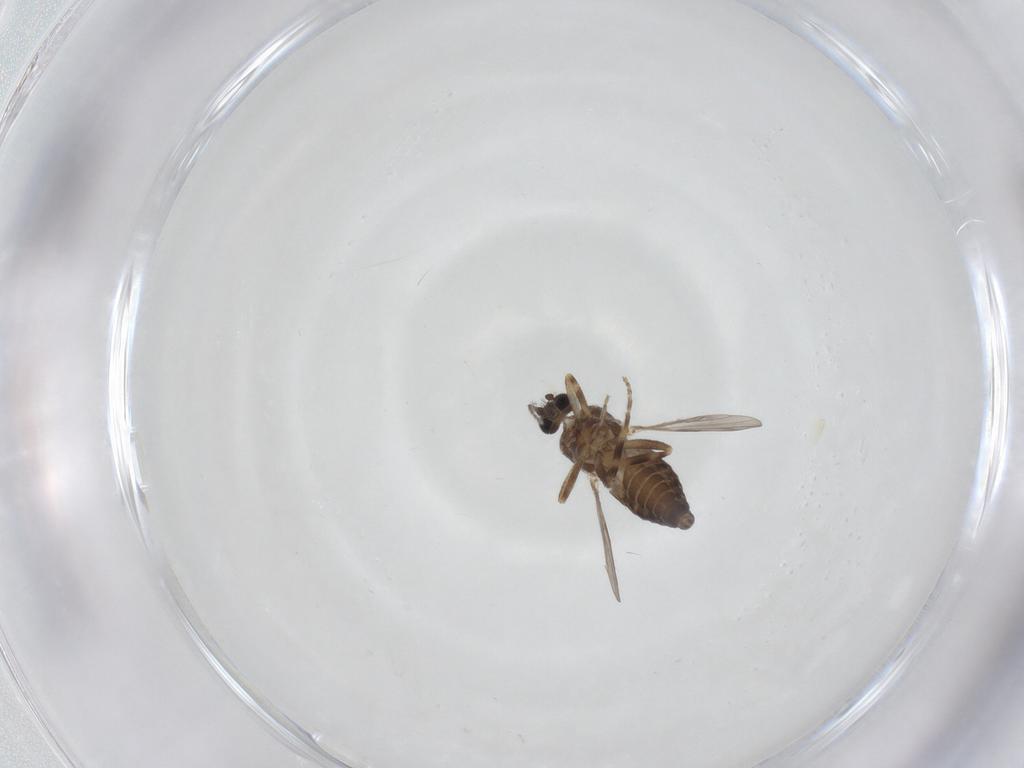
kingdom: Animalia
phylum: Arthropoda
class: Insecta
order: Diptera
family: Ceratopogonidae
